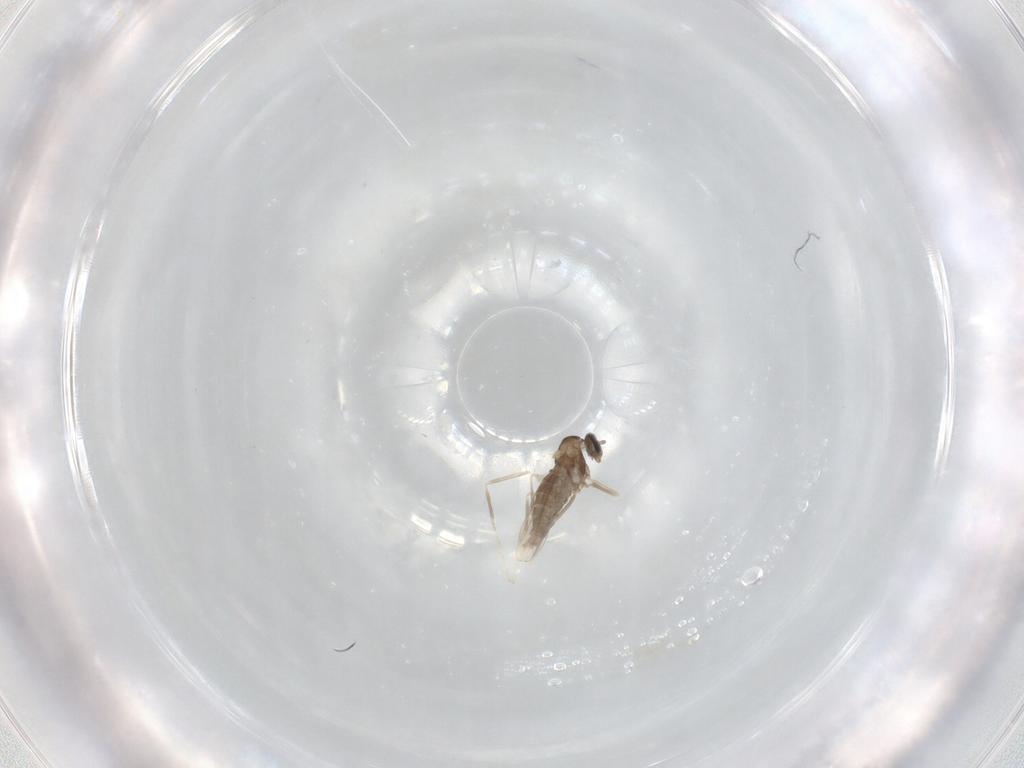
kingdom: Animalia
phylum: Arthropoda
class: Insecta
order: Diptera
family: Cecidomyiidae
